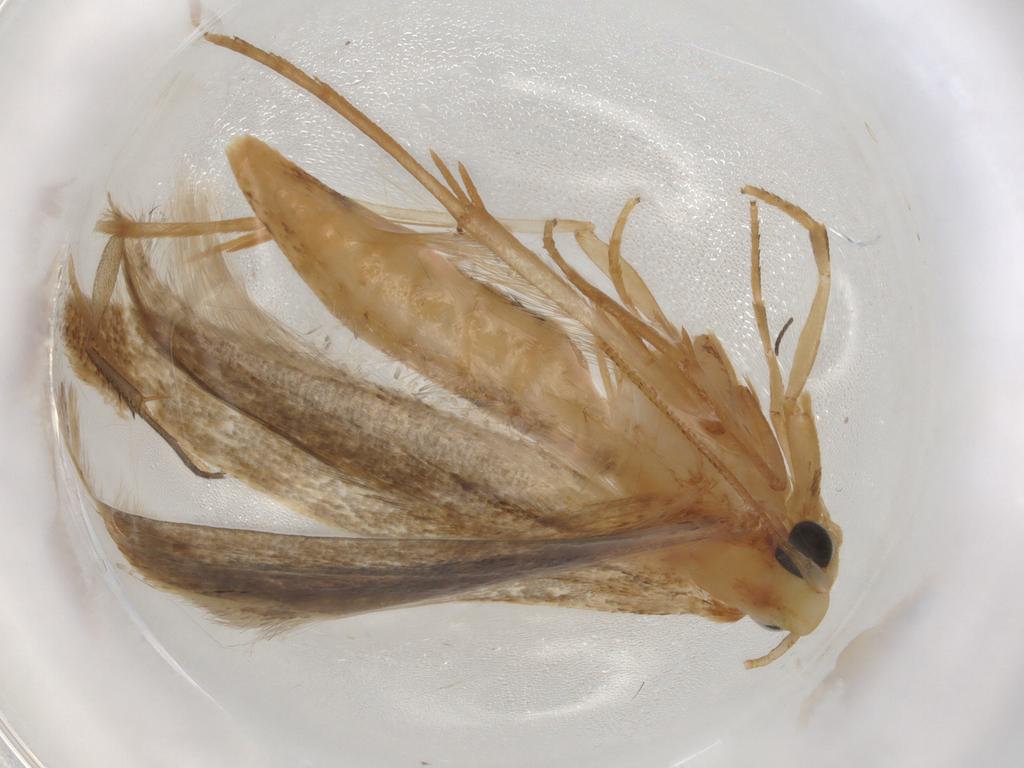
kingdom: Animalia
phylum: Arthropoda
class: Insecta
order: Lepidoptera
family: Tineidae
